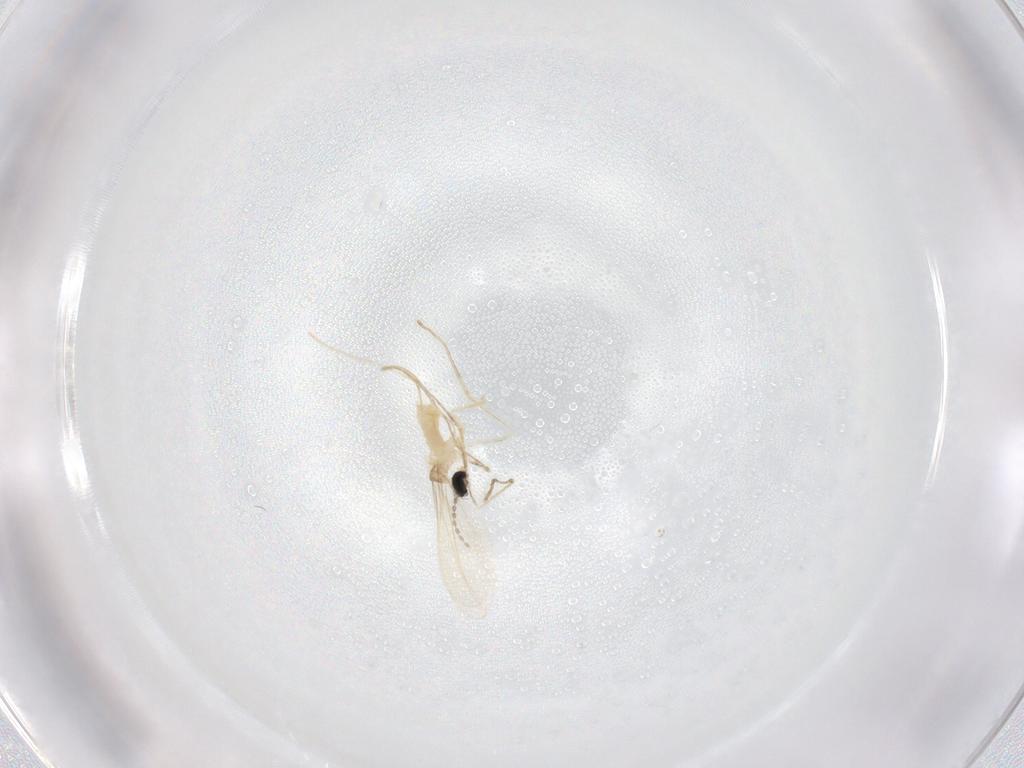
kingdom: Animalia
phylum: Arthropoda
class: Insecta
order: Diptera
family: Cecidomyiidae
